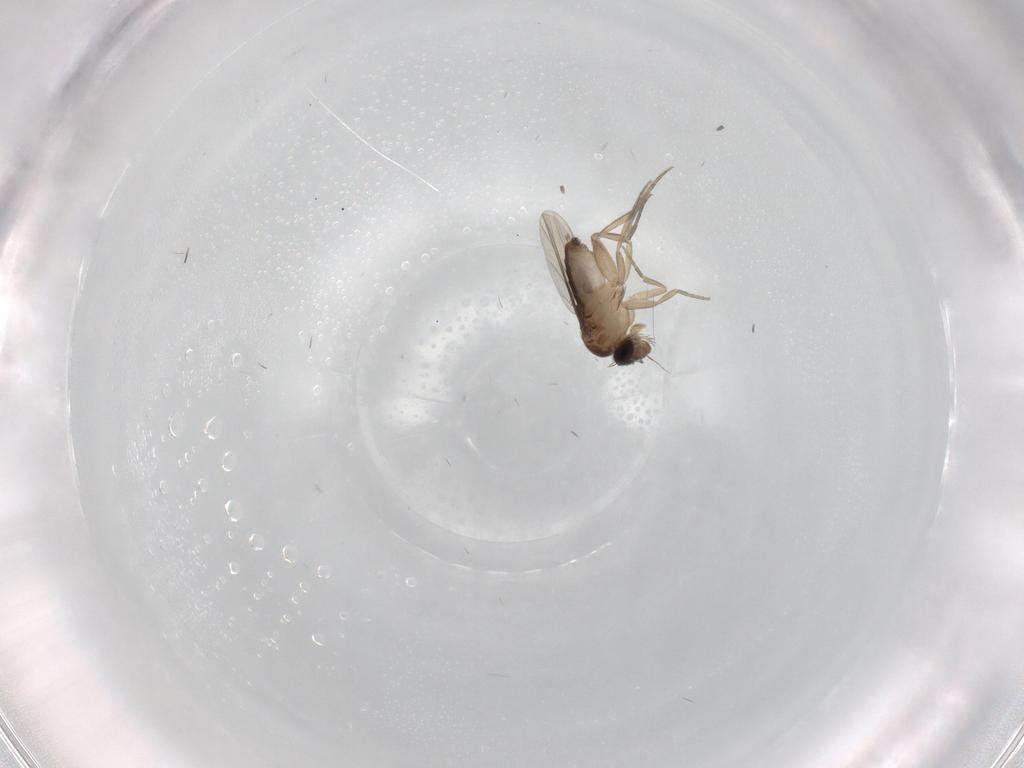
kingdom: Animalia
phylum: Arthropoda
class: Insecta
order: Diptera
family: Phoridae
